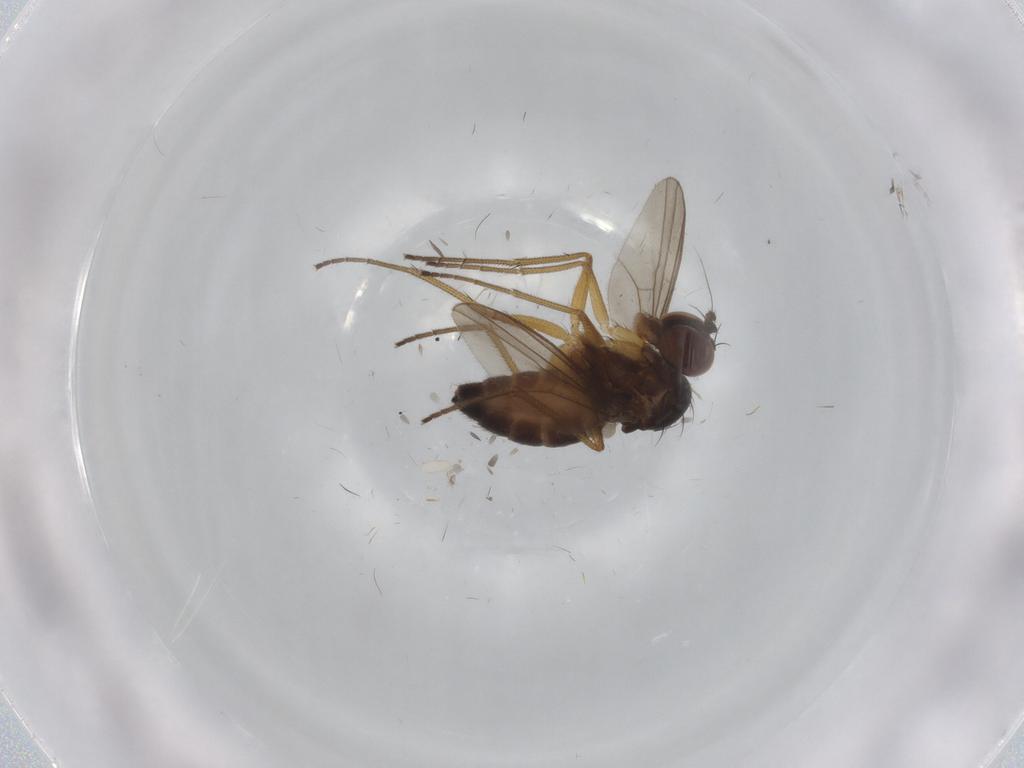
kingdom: Animalia
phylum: Arthropoda
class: Insecta
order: Diptera
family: Dolichopodidae
